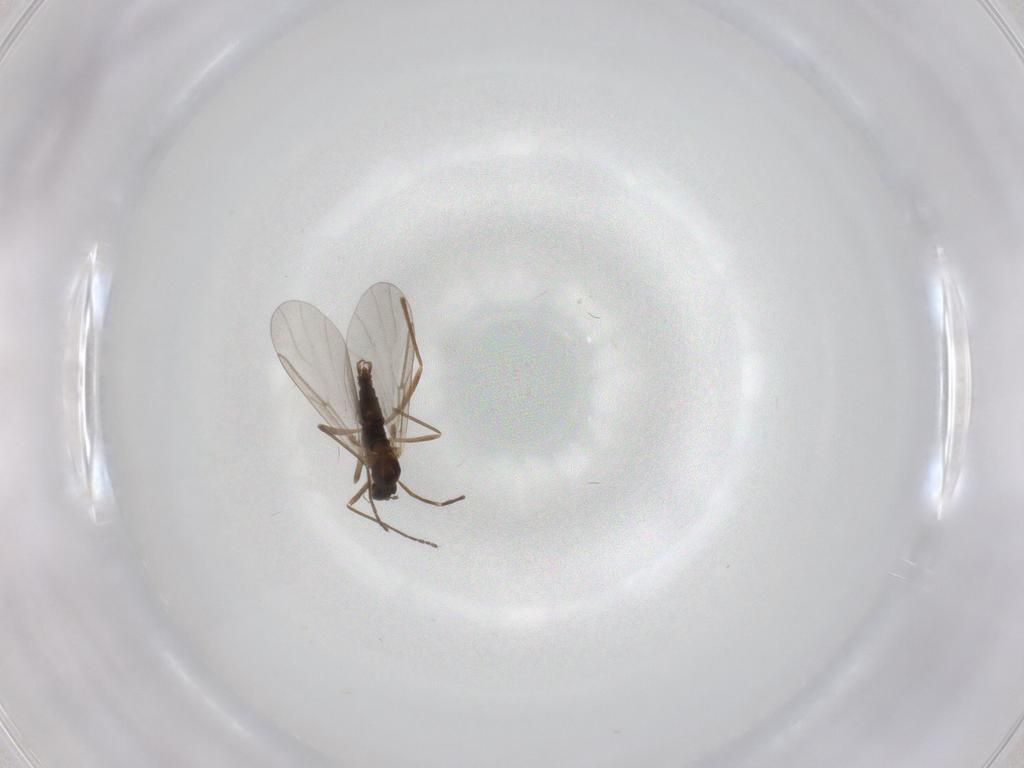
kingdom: Animalia
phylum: Arthropoda
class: Insecta
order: Diptera
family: Cecidomyiidae
